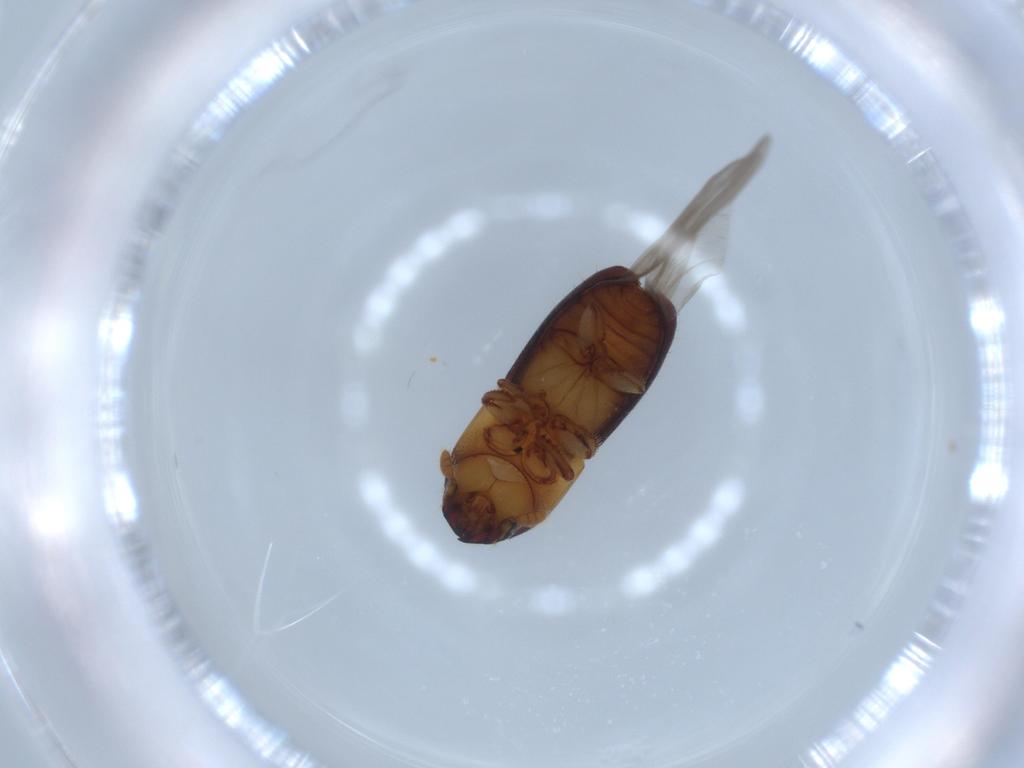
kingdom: Animalia
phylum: Arthropoda
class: Insecta
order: Coleoptera
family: Curculionidae
